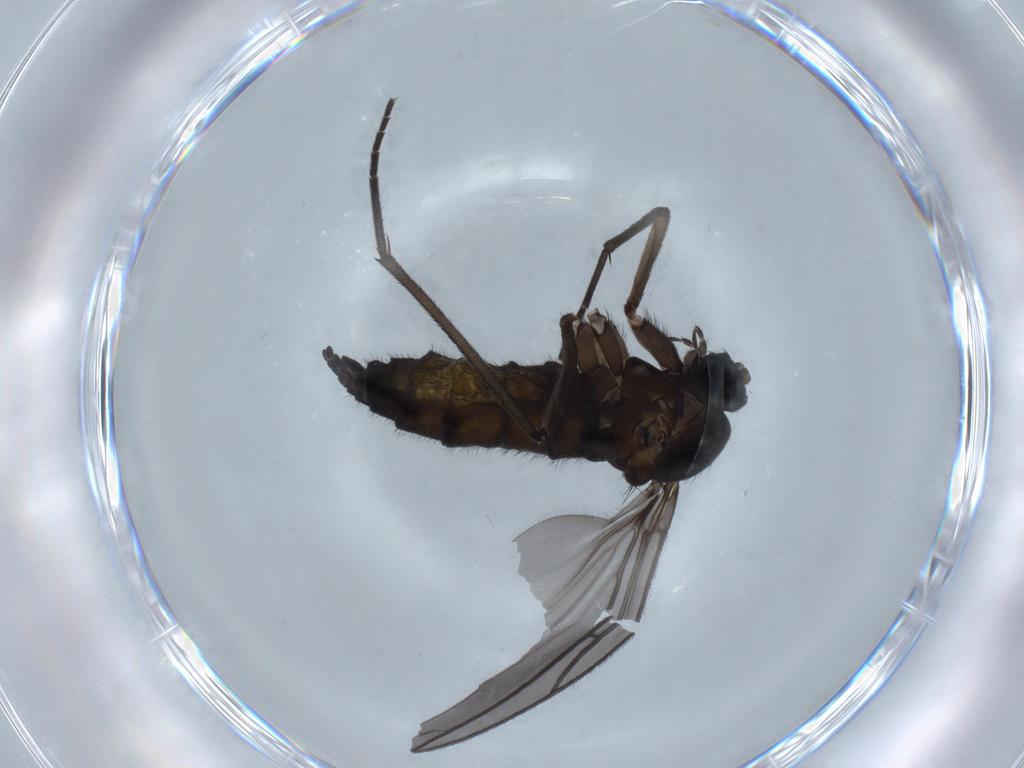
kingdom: Animalia
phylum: Arthropoda
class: Insecta
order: Diptera
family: Sciaridae
